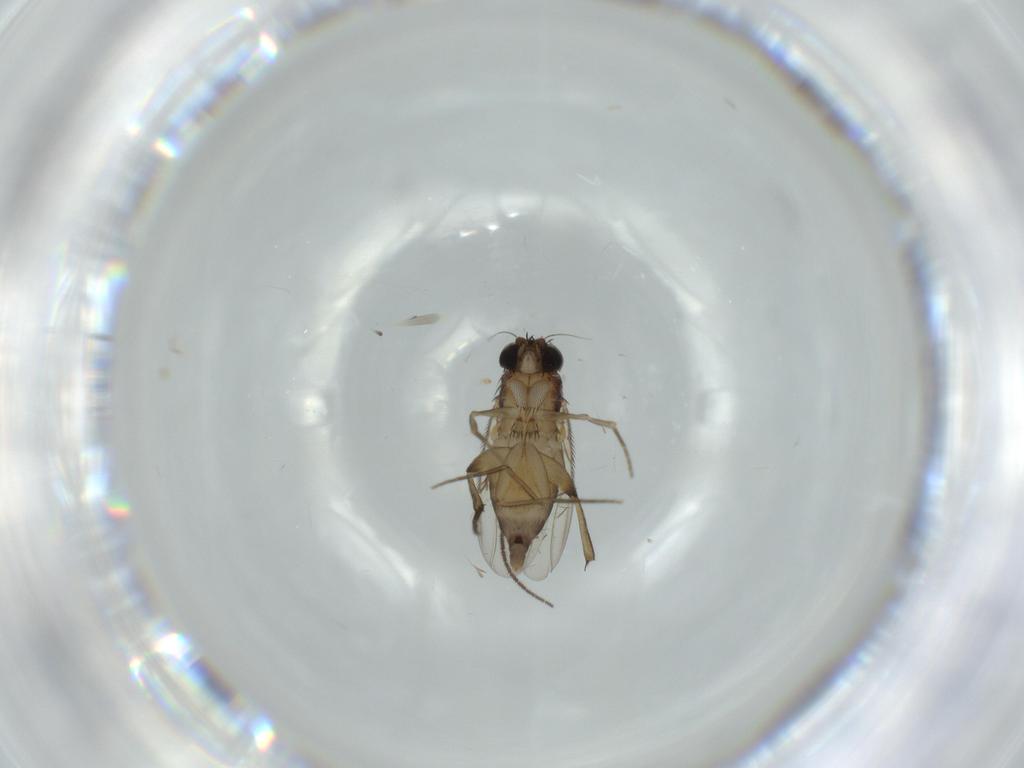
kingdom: Animalia
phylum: Arthropoda
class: Insecta
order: Diptera
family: Phoridae
